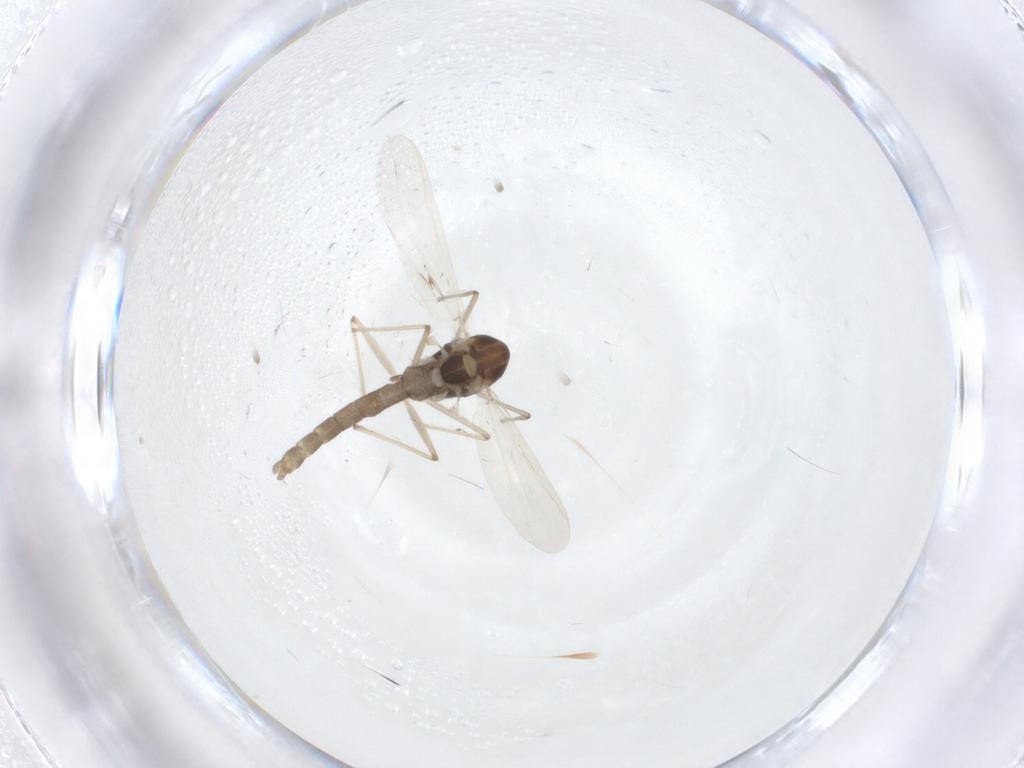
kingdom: Animalia
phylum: Arthropoda
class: Insecta
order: Diptera
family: Chironomidae
